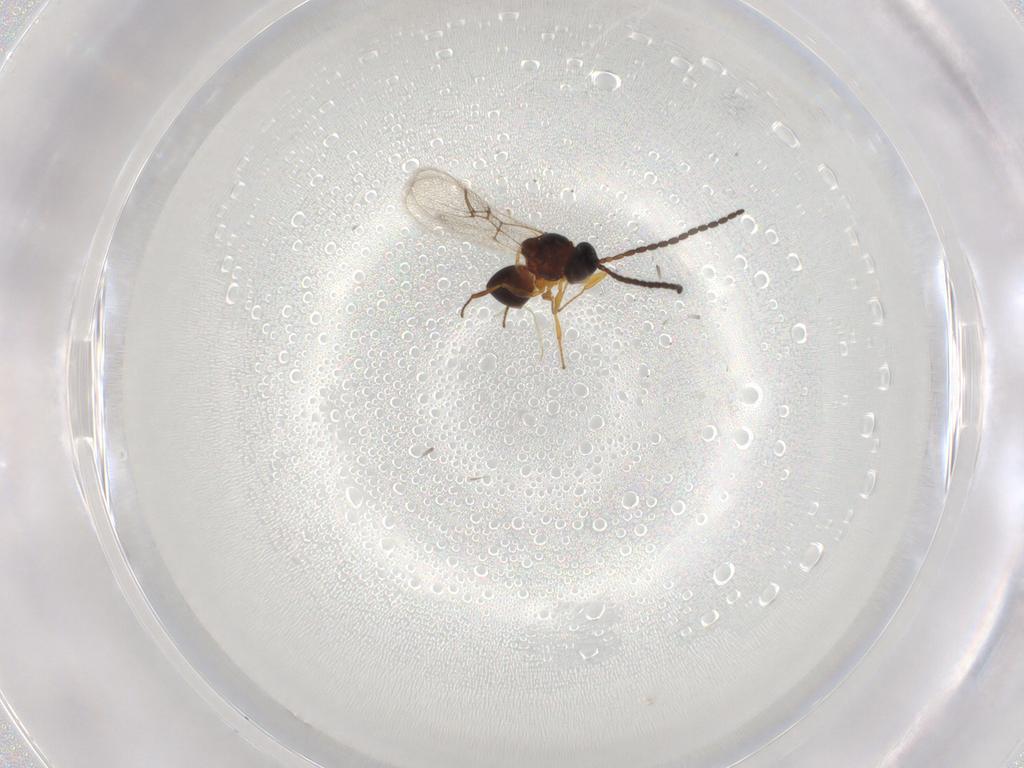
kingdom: Animalia
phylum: Arthropoda
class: Insecta
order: Hymenoptera
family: Figitidae
